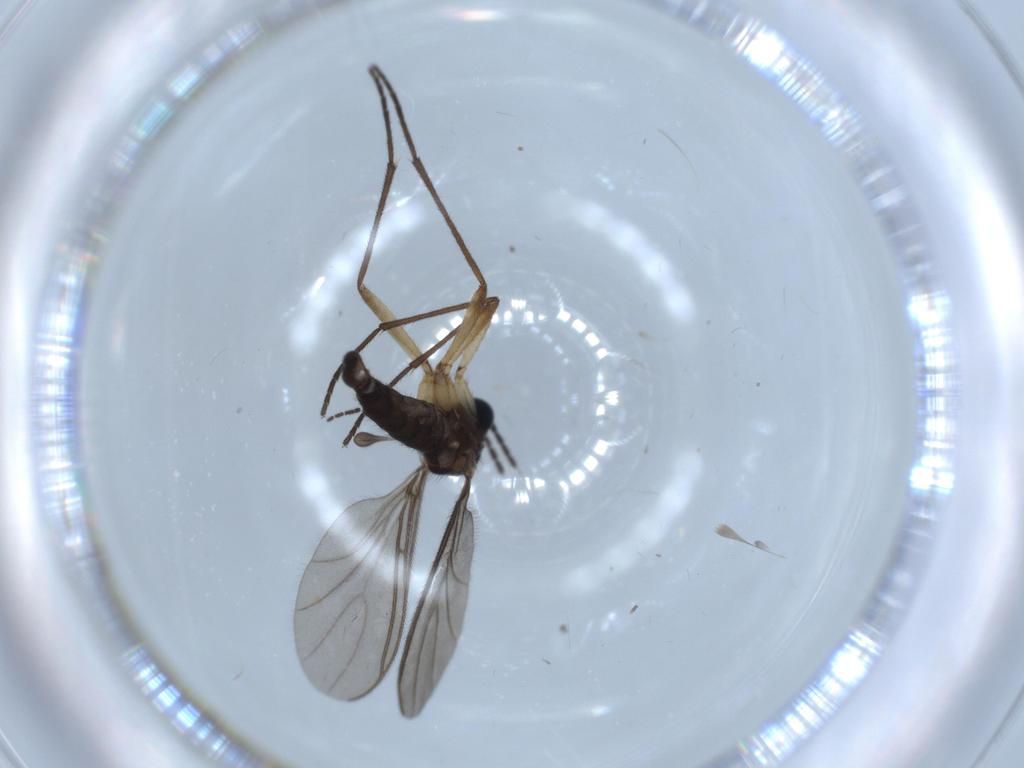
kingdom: Animalia
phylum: Arthropoda
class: Insecta
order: Diptera
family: Sciaridae
